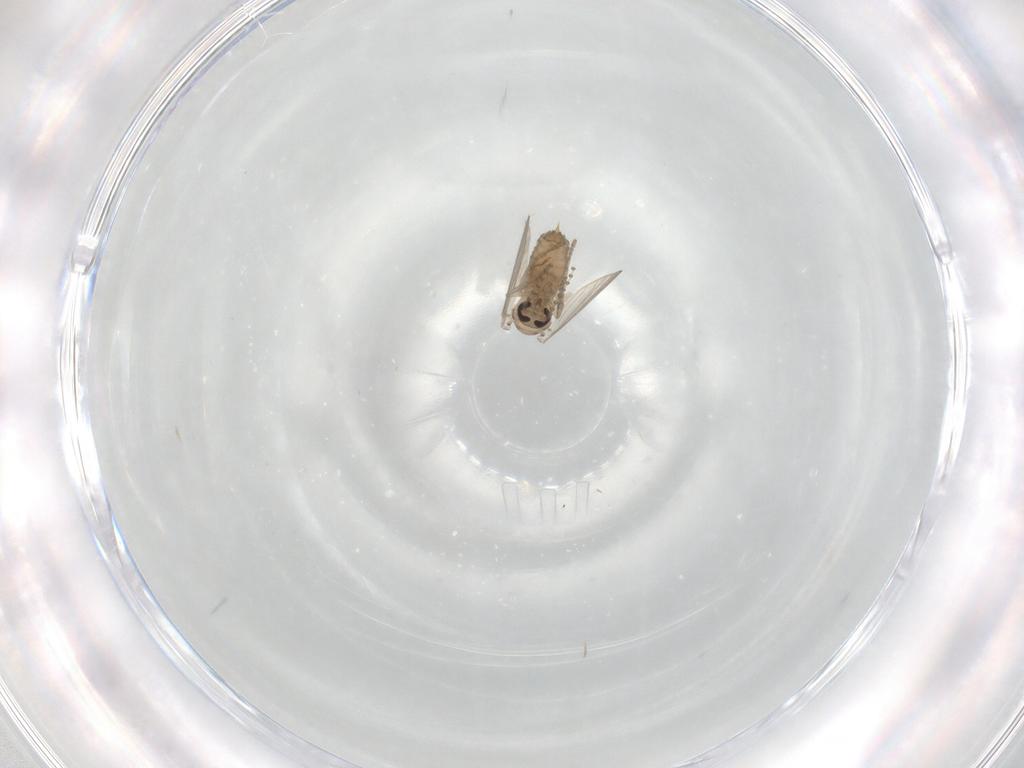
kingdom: Animalia
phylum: Arthropoda
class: Insecta
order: Diptera
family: Psychodidae
